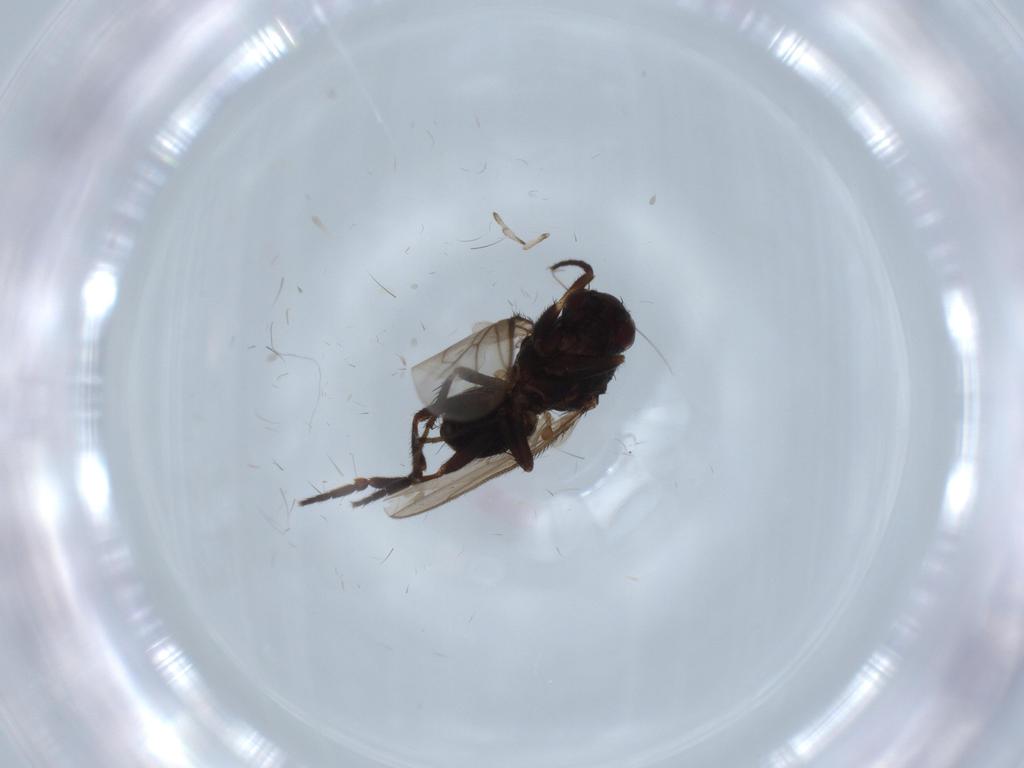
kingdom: Animalia
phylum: Arthropoda
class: Insecta
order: Diptera
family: Sphaeroceridae
